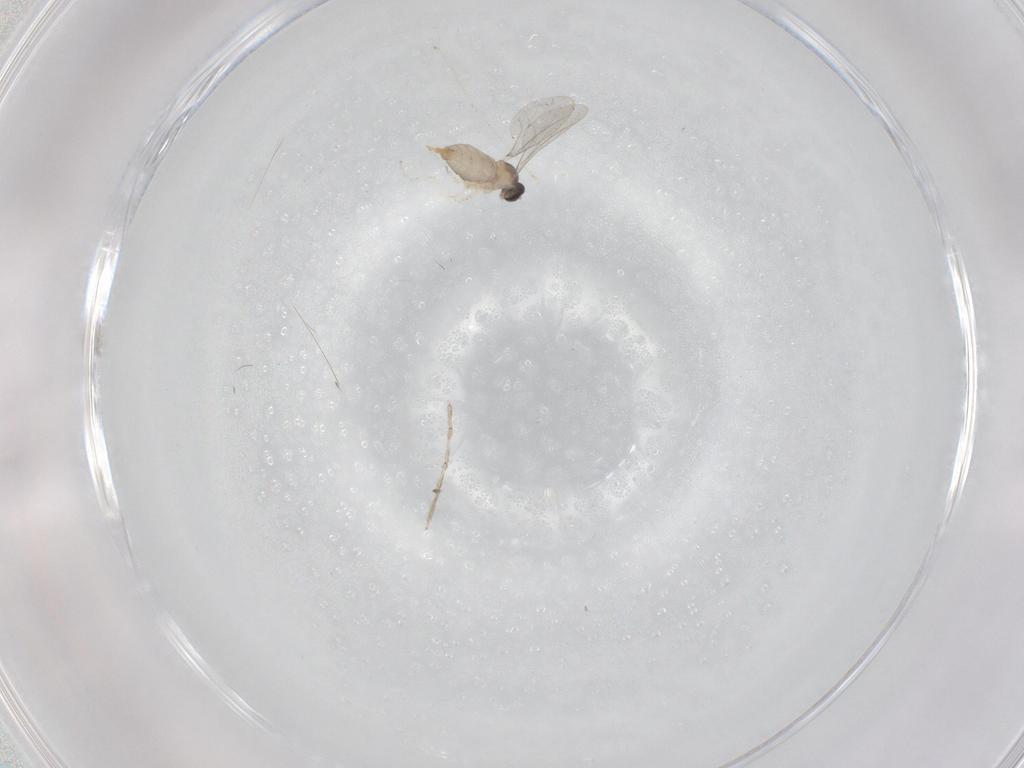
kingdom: Animalia
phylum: Arthropoda
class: Insecta
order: Diptera
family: Cecidomyiidae
